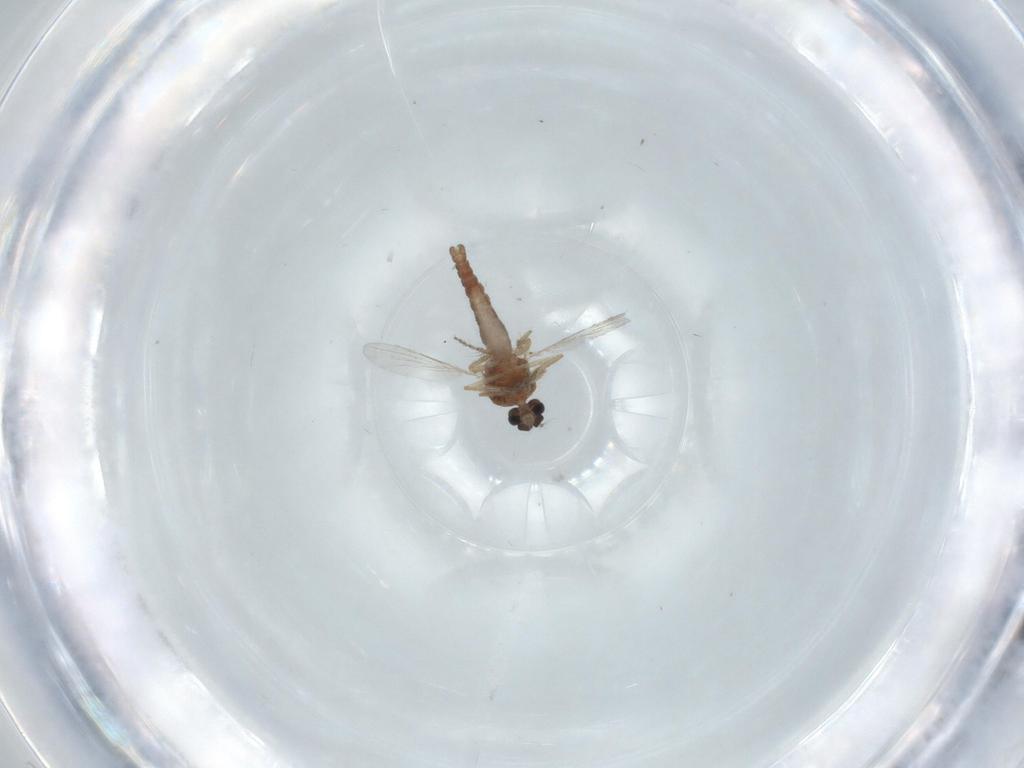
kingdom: Animalia
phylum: Arthropoda
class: Insecta
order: Diptera
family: Ceratopogonidae
